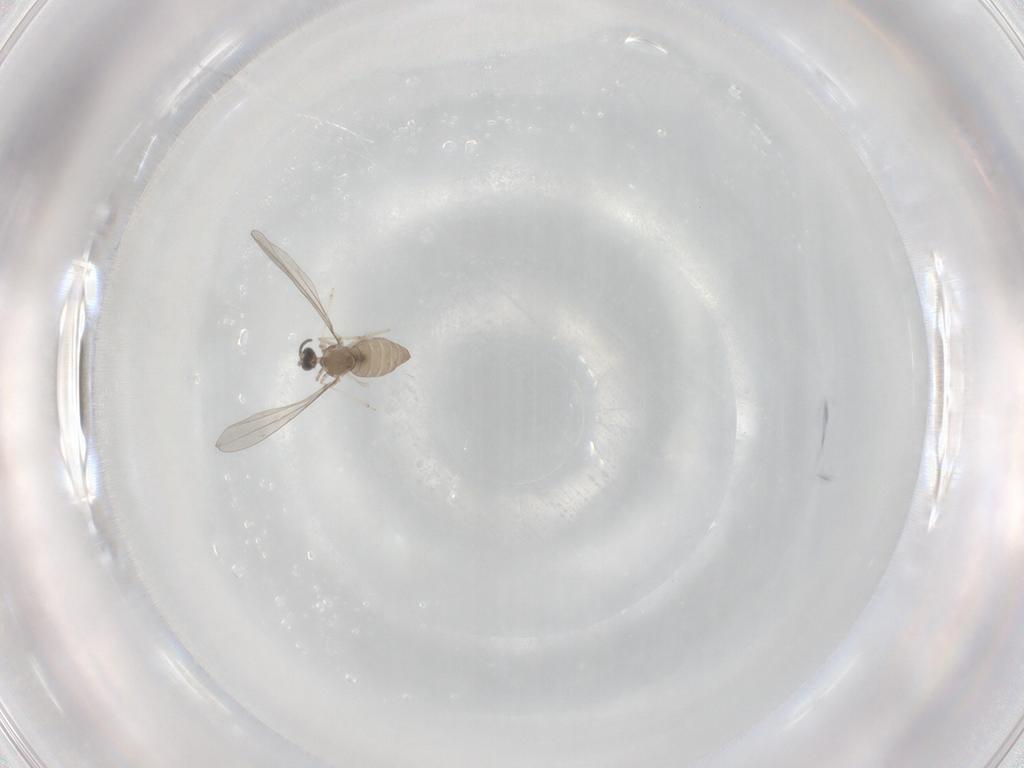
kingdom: Animalia
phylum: Arthropoda
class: Insecta
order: Diptera
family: Cecidomyiidae
